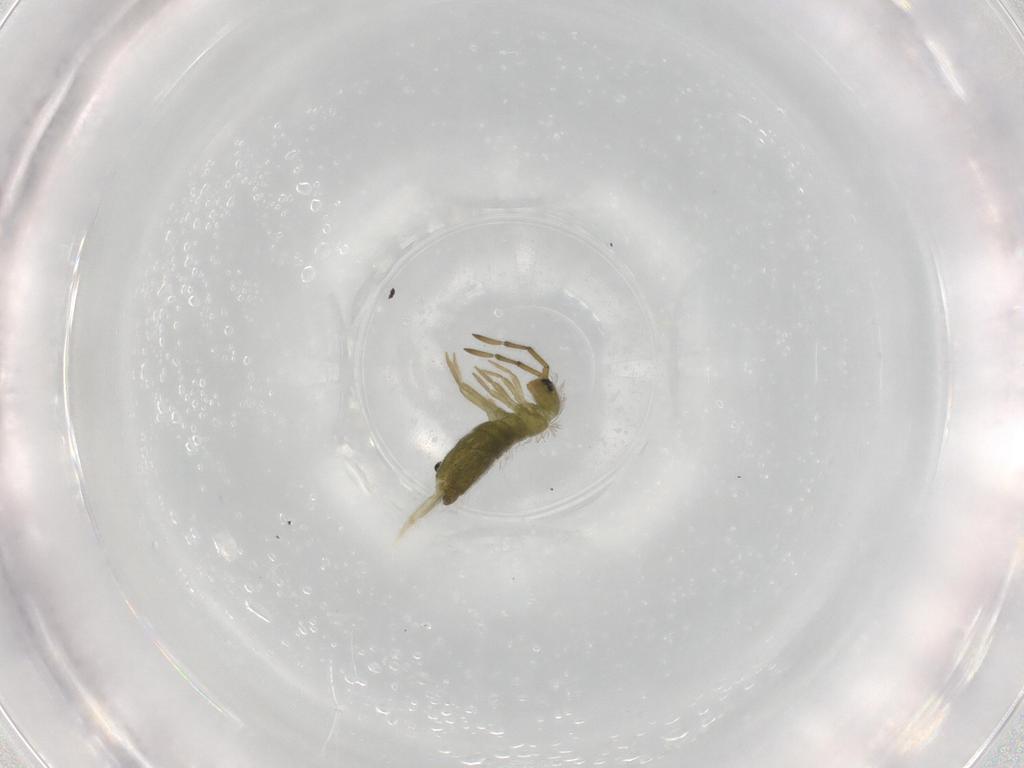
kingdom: Animalia
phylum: Arthropoda
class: Collembola
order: Entomobryomorpha
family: Entomobryidae
